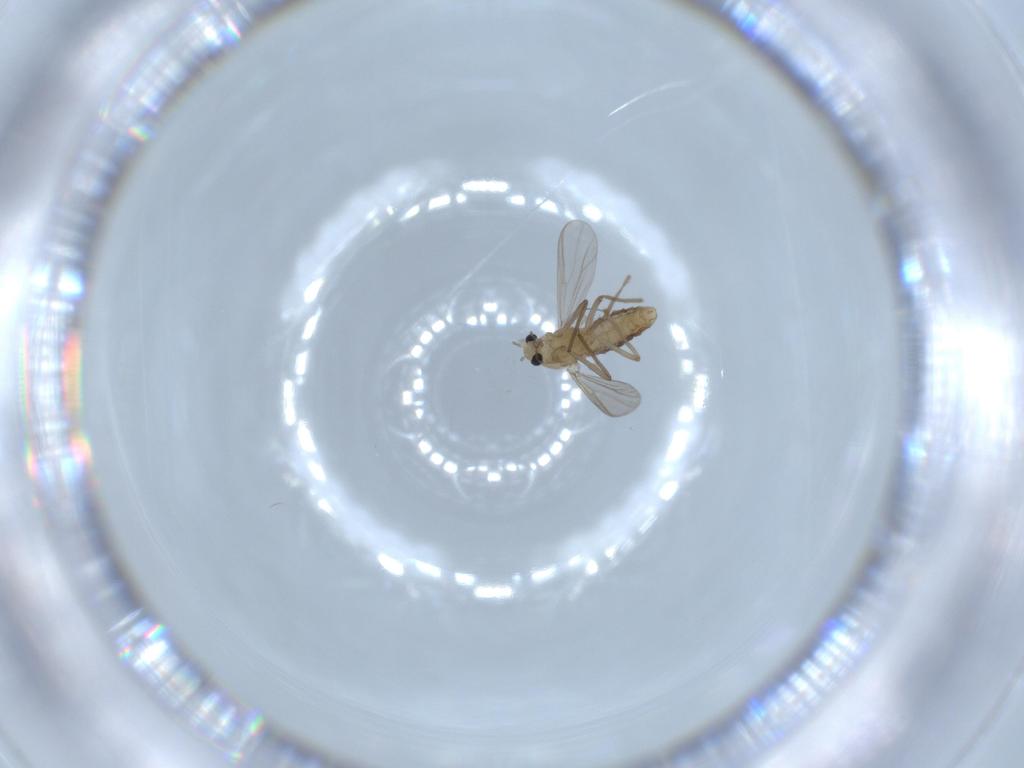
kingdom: Animalia
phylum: Arthropoda
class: Insecta
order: Diptera
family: Chironomidae
